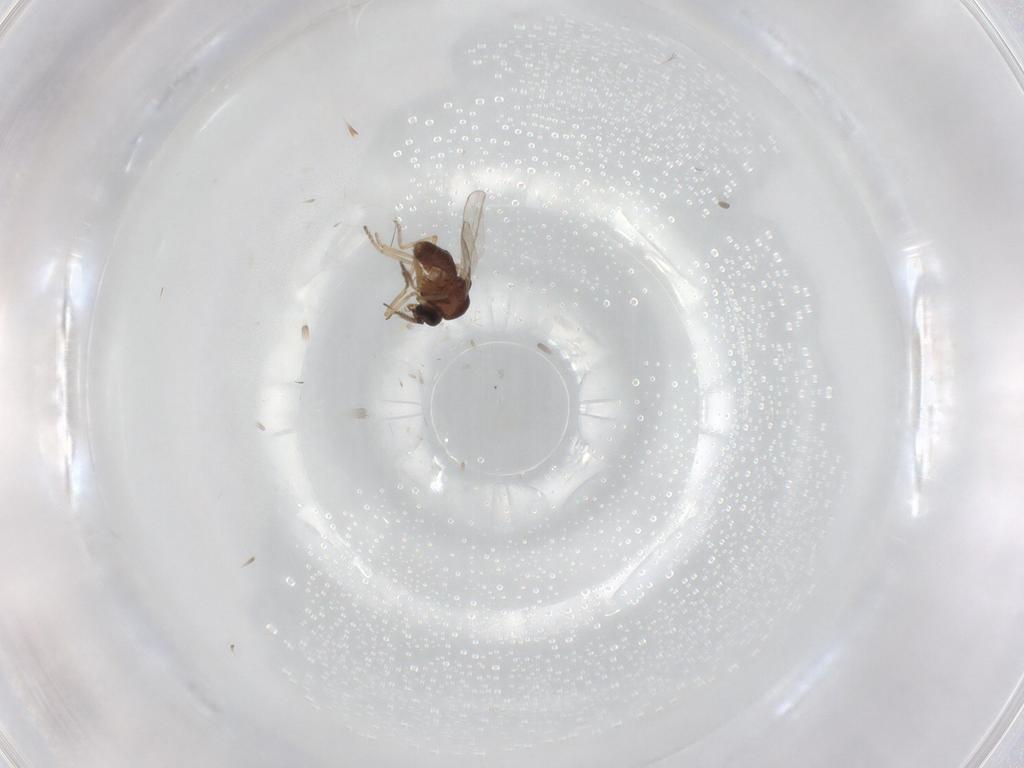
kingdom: Animalia
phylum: Arthropoda
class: Insecta
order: Diptera
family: Ceratopogonidae
